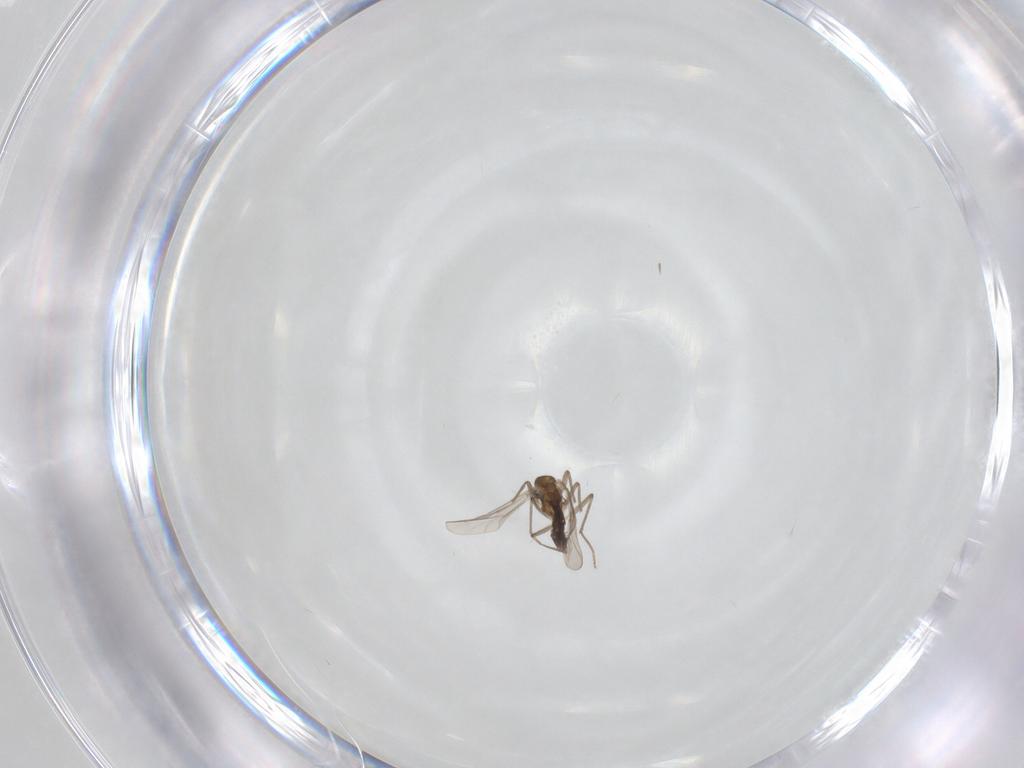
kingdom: Animalia
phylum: Arthropoda
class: Insecta
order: Diptera
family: Chironomidae
